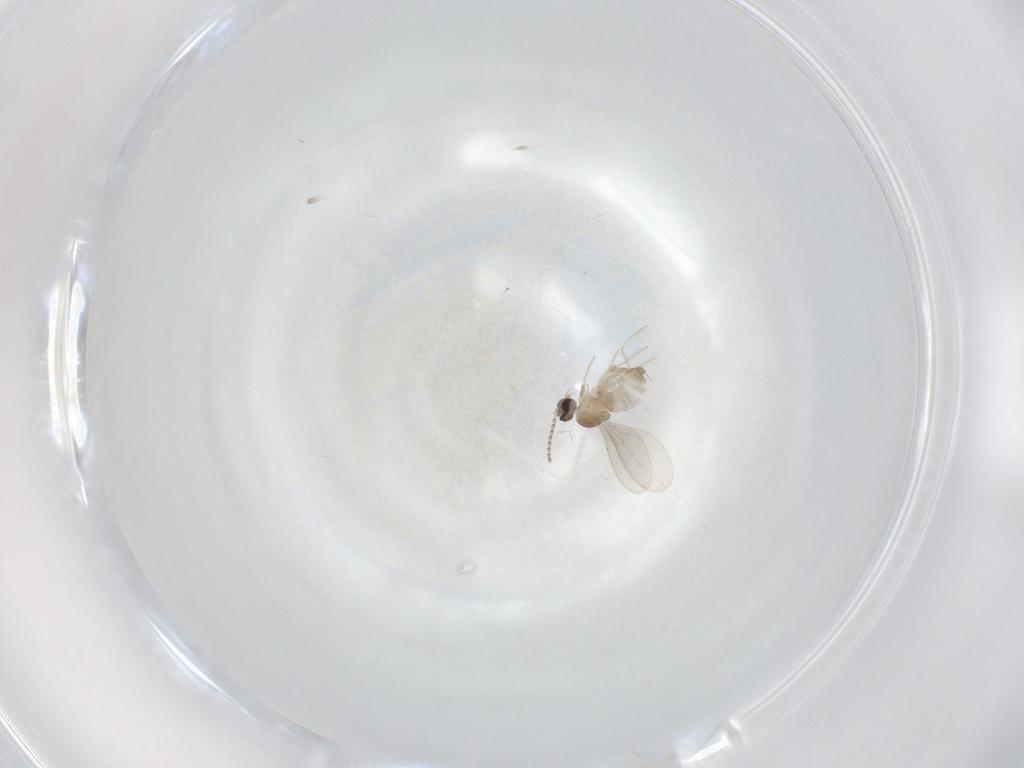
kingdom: Animalia
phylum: Arthropoda
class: Insecta
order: Diptera
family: Cecidomyiidae
